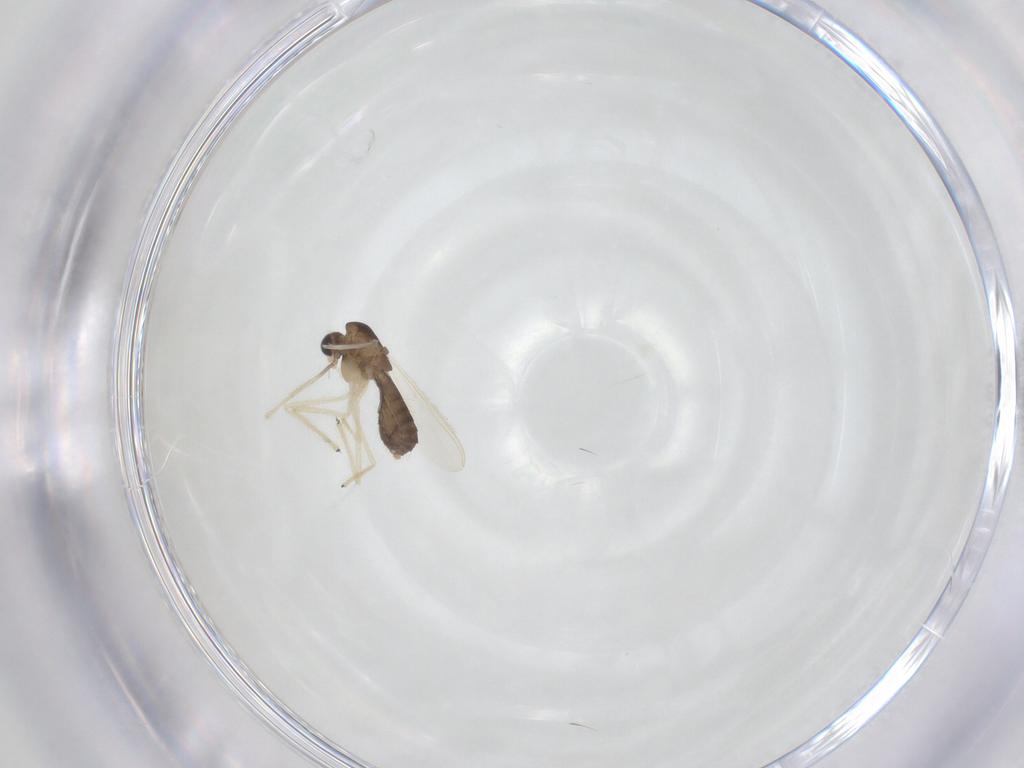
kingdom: Animalia
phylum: Arthropoda
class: Insecta
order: Diptera
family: Chironomidae
